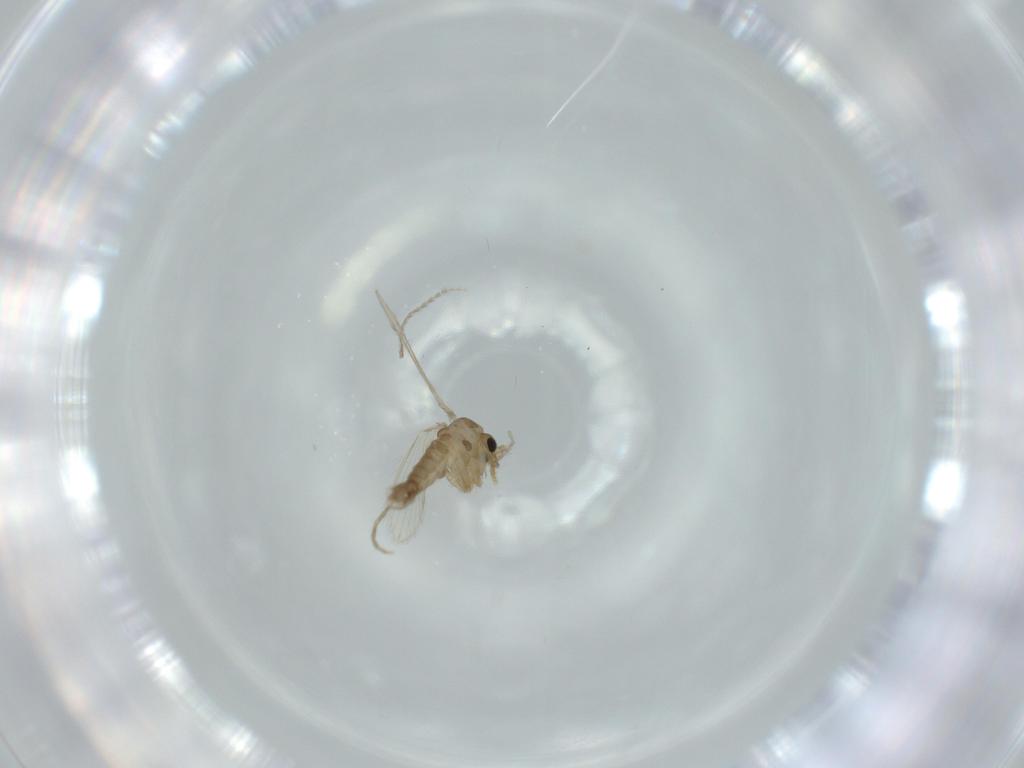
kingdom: Animalia
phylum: Arthropoda
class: Insecta
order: Diptera
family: Psychodidae
